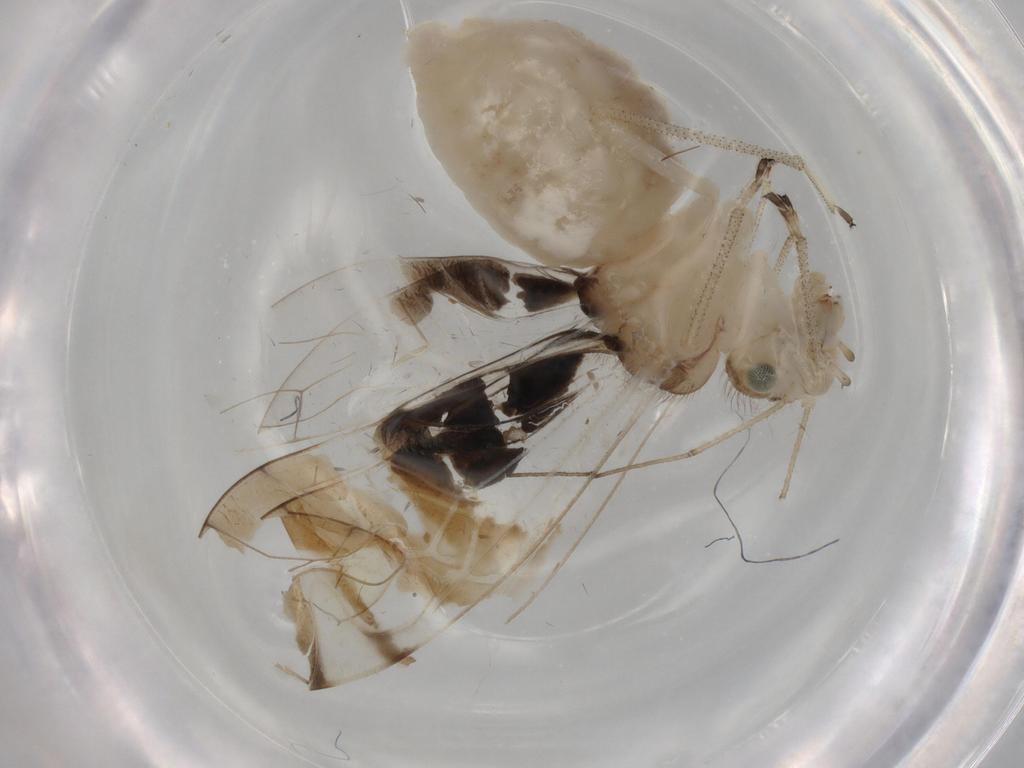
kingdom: Animalia
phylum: Arthropoda
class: Insecta
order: Psocodea
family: Amphipsocidae
